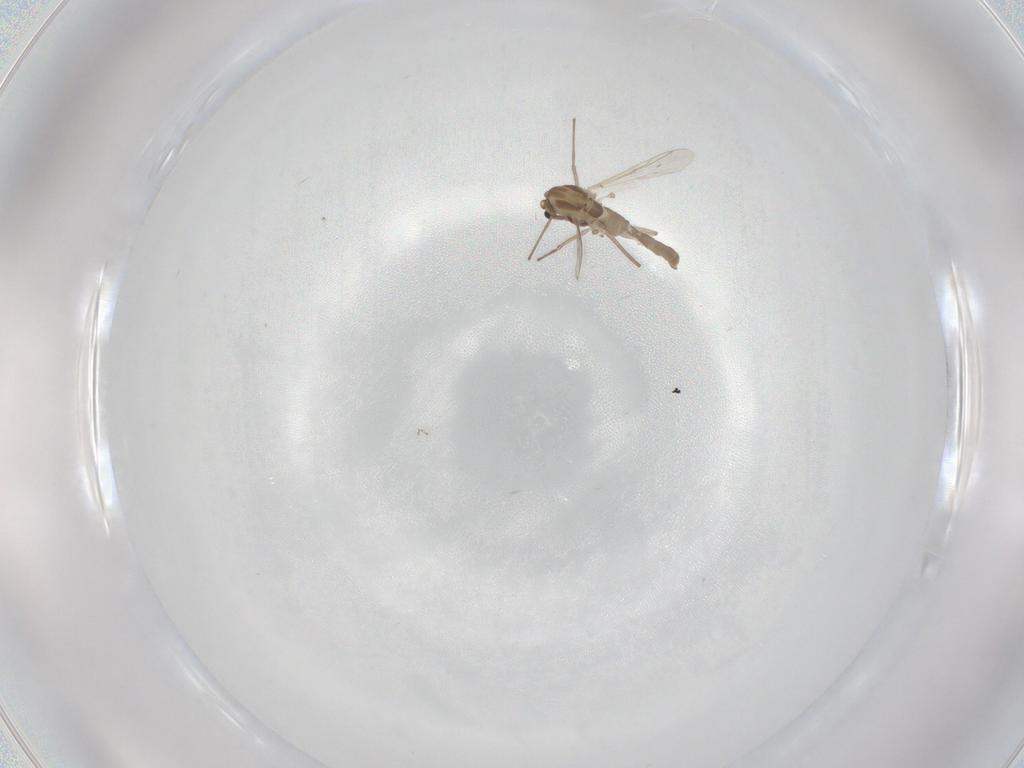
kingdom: Animalia
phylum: Arthropoda
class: Insecta
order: Diptera
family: Chironomidae
